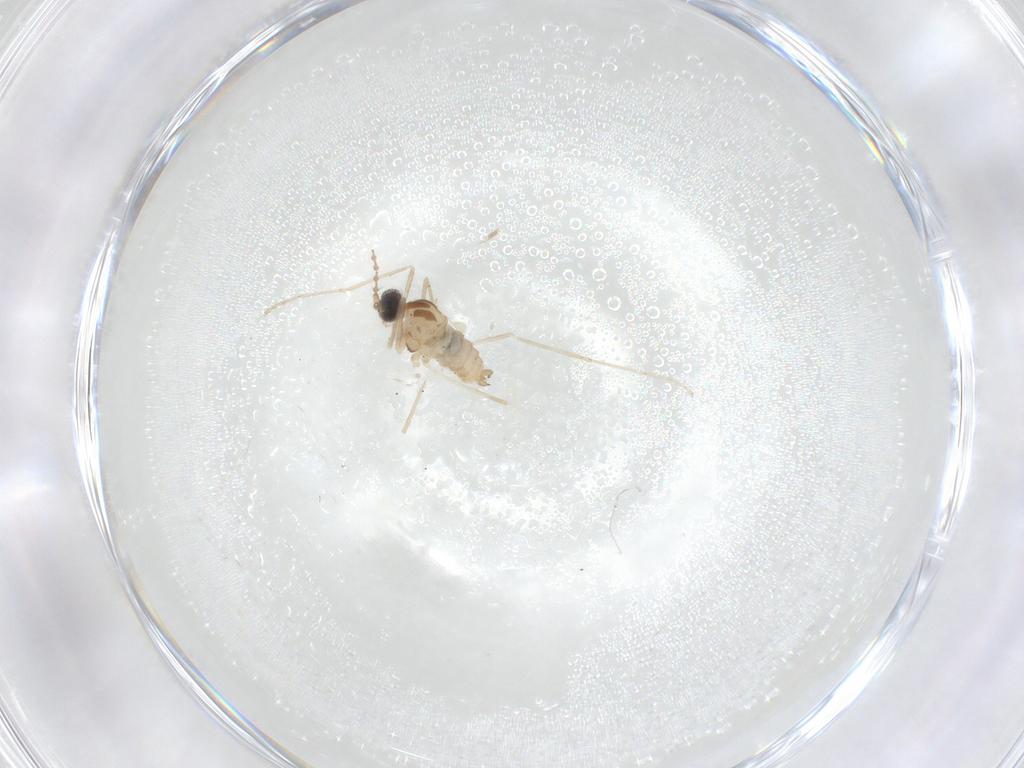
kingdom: Animalia
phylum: Arthropoda
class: Insecta
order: Diptera
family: Cecidomyiidae
